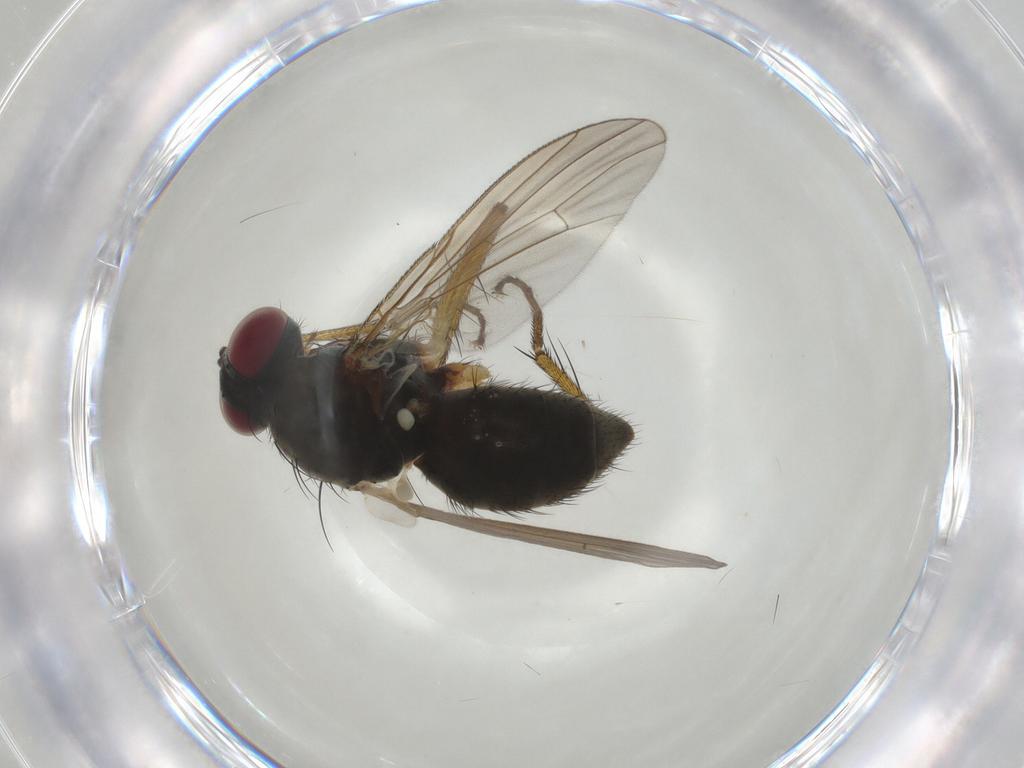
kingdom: Animalia
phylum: Arthropoda
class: Insecta
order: Diptera
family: Muscidae
